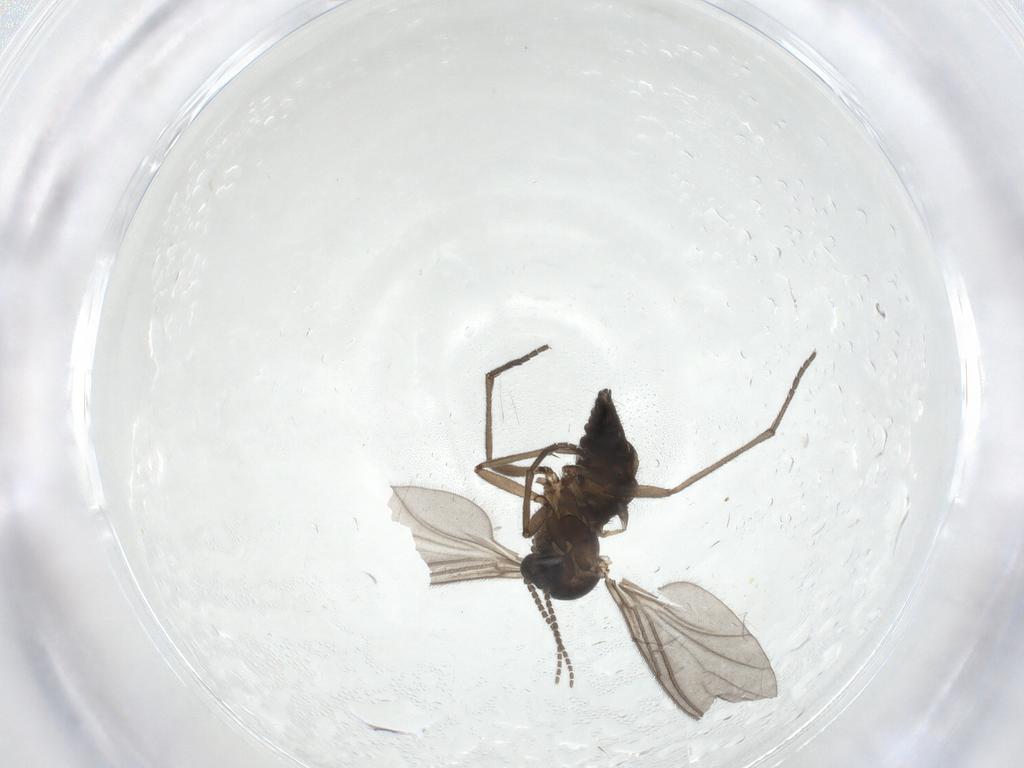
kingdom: Animalia
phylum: Arthropoda
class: Insecta
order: Diptera
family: Sciaridae
